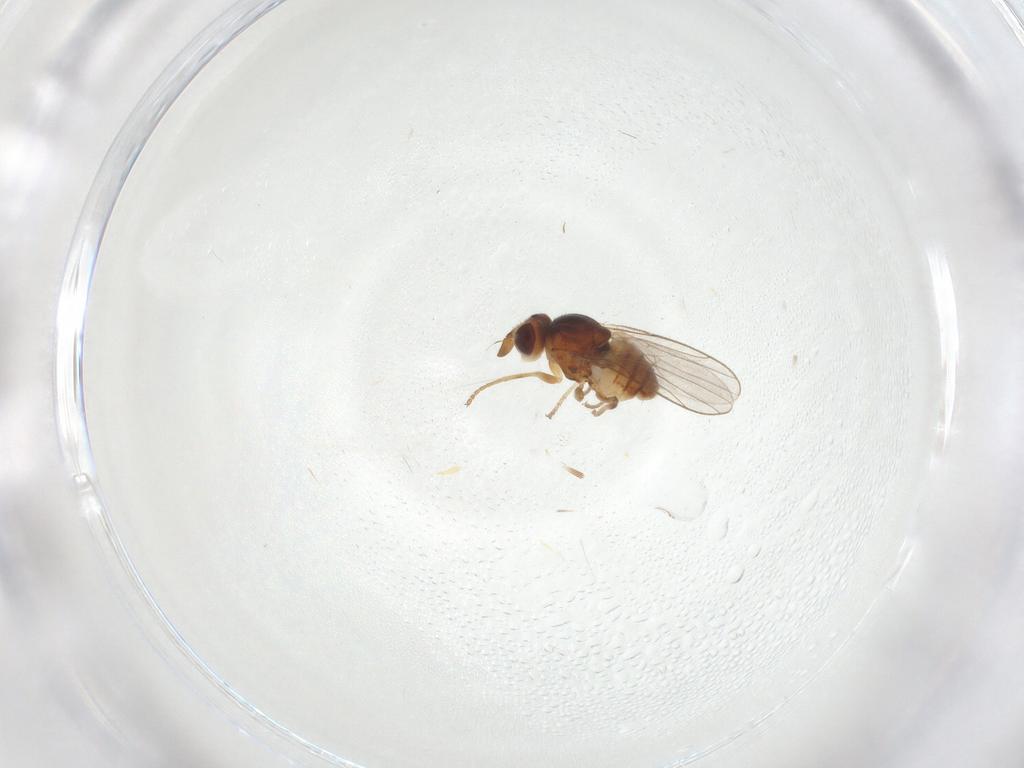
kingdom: Animalia
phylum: Arthropoda
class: Insecta
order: Diptera
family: Chloropidae
